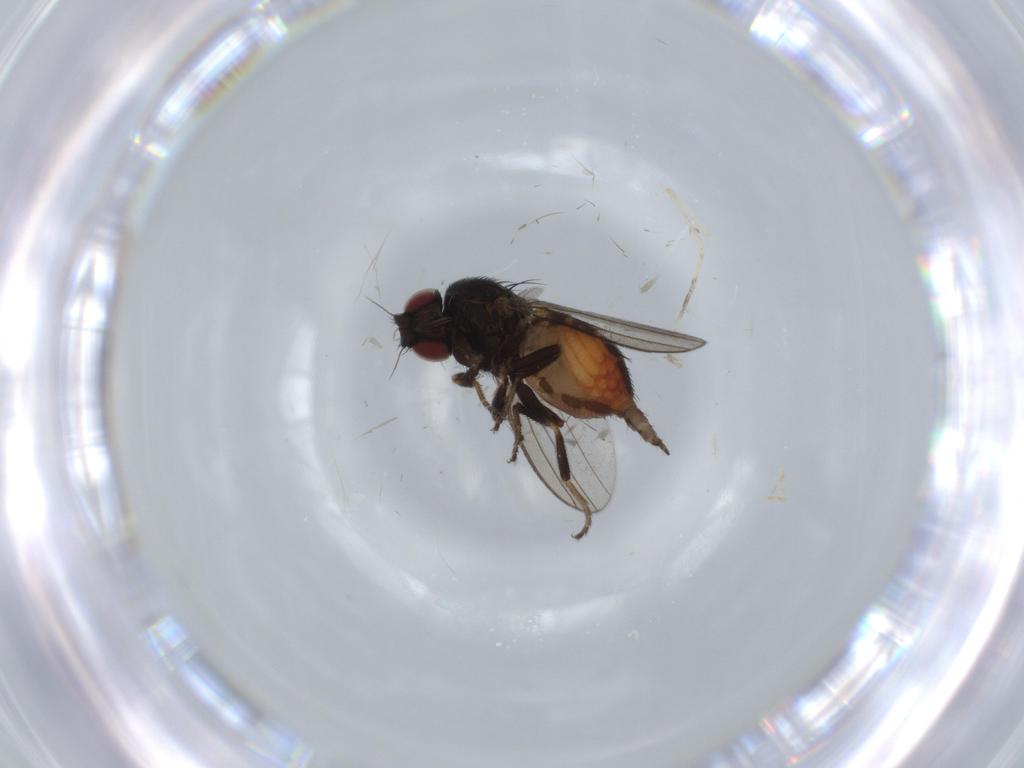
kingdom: Animalia
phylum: Arthropoda
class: Insecta
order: Diptera
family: Milichiidae
